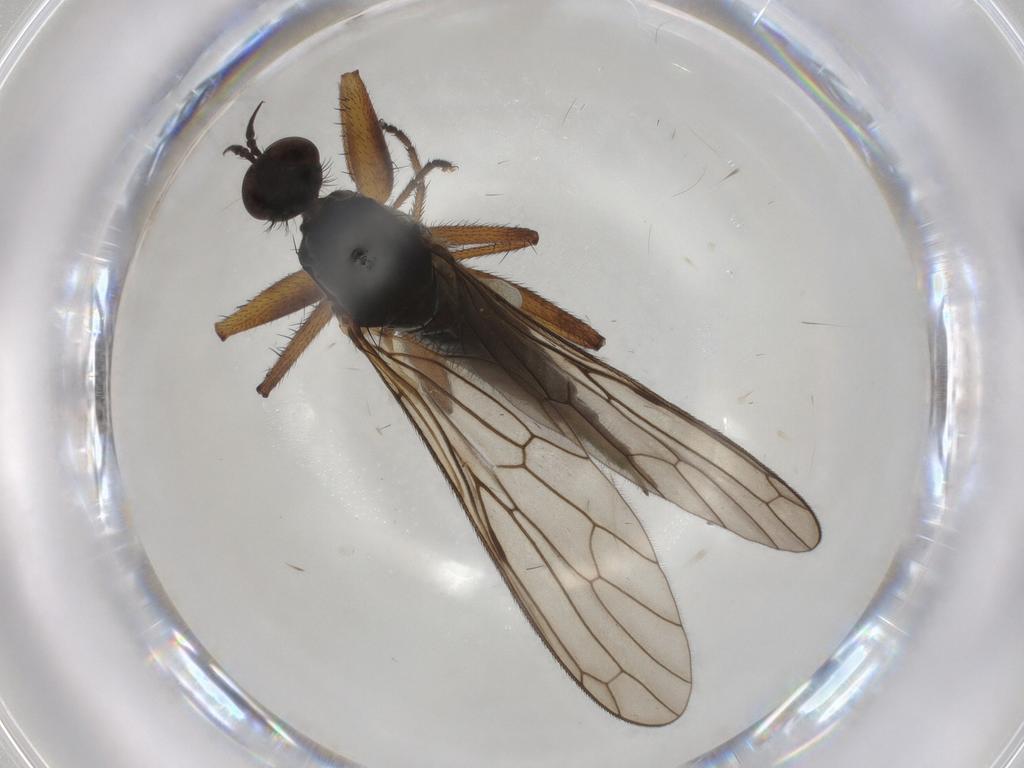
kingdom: Animalia
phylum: Arthropoda
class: Insecta
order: Diptera
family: Empididae
